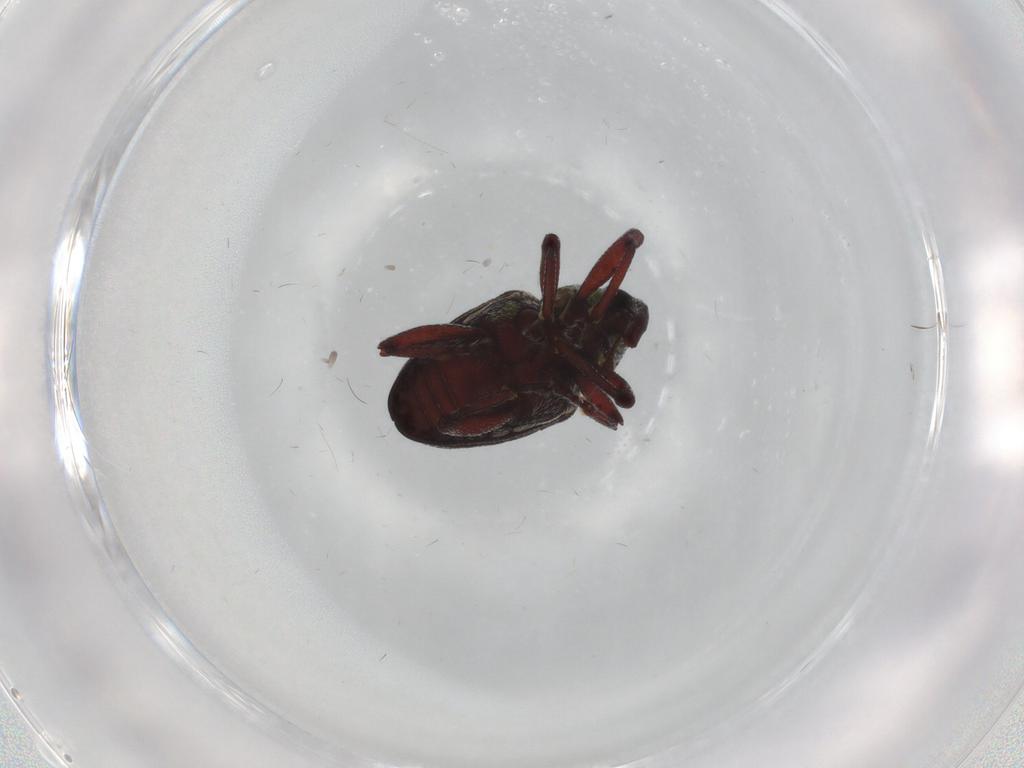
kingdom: Animalia
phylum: Arthropoda
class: Insecta
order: Coleoptera
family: Curculionidae
